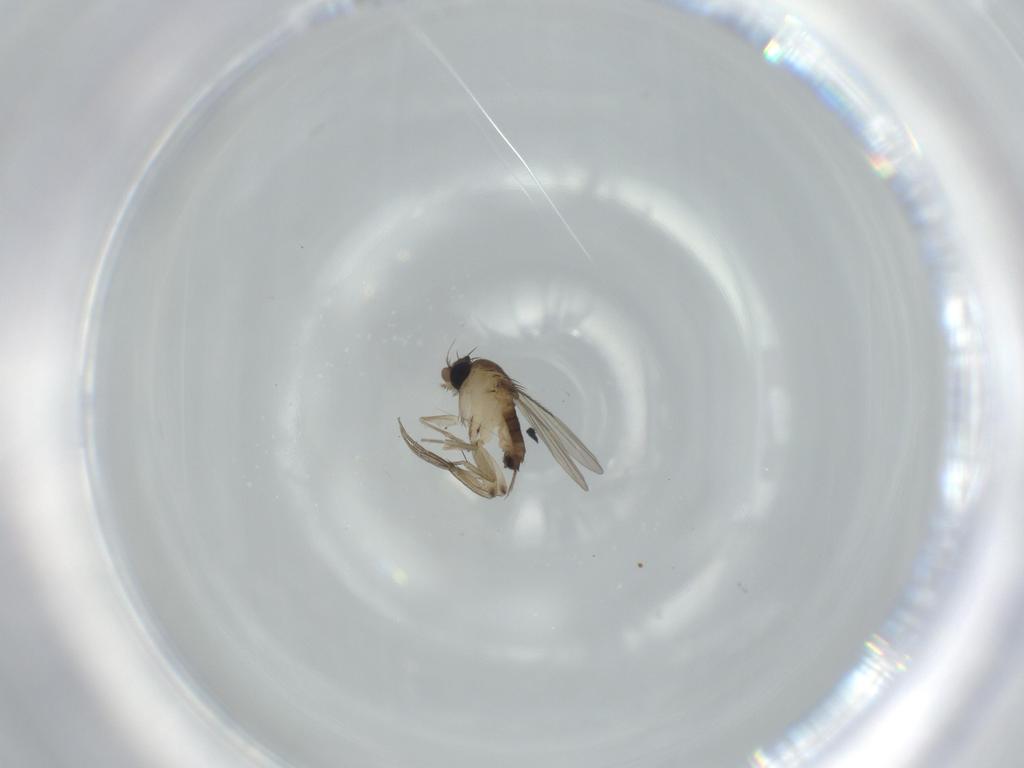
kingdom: Animalia
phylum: Arthropoda
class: Insecta
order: Diptera
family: Phoridae
